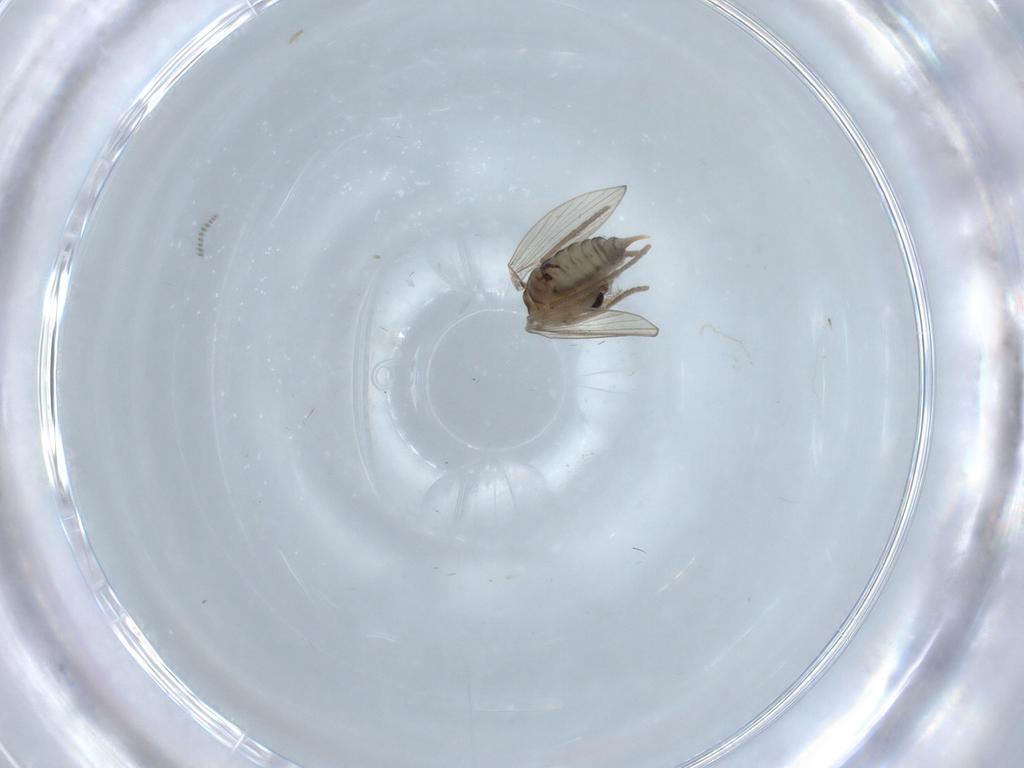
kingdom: Animalia
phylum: Arthropoda
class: Insecta
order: Diptera
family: Psychodidae
